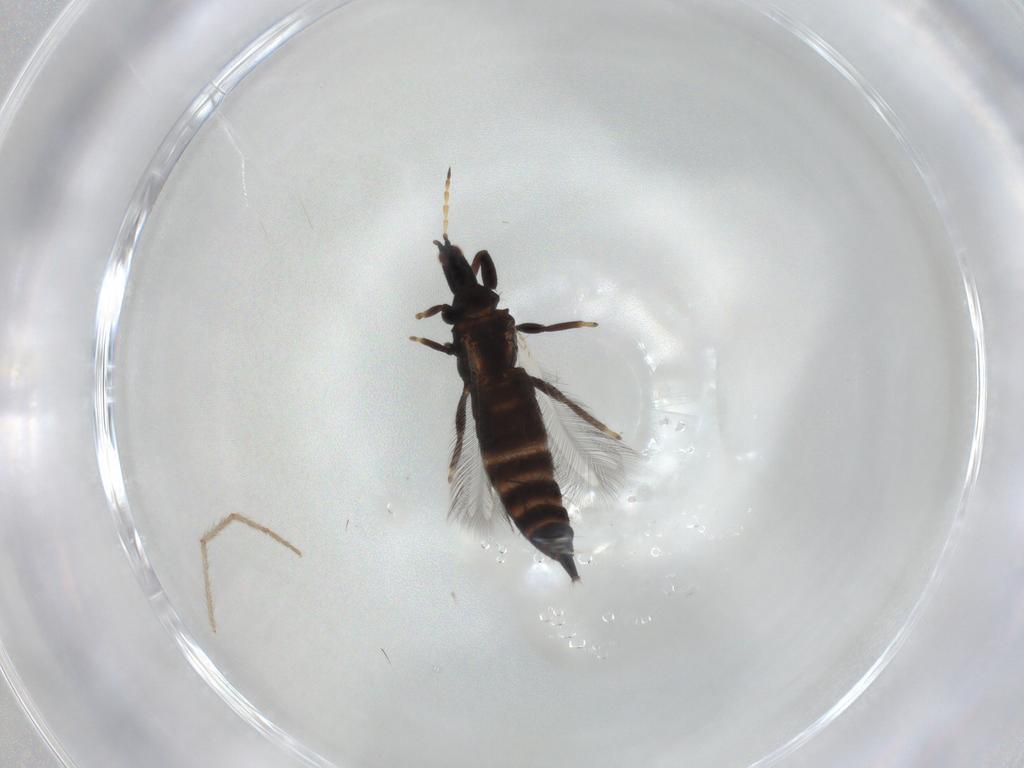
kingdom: Animalia
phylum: Arthropoda
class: Insecta
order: Thysanoptera
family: Phlaeothripidae
